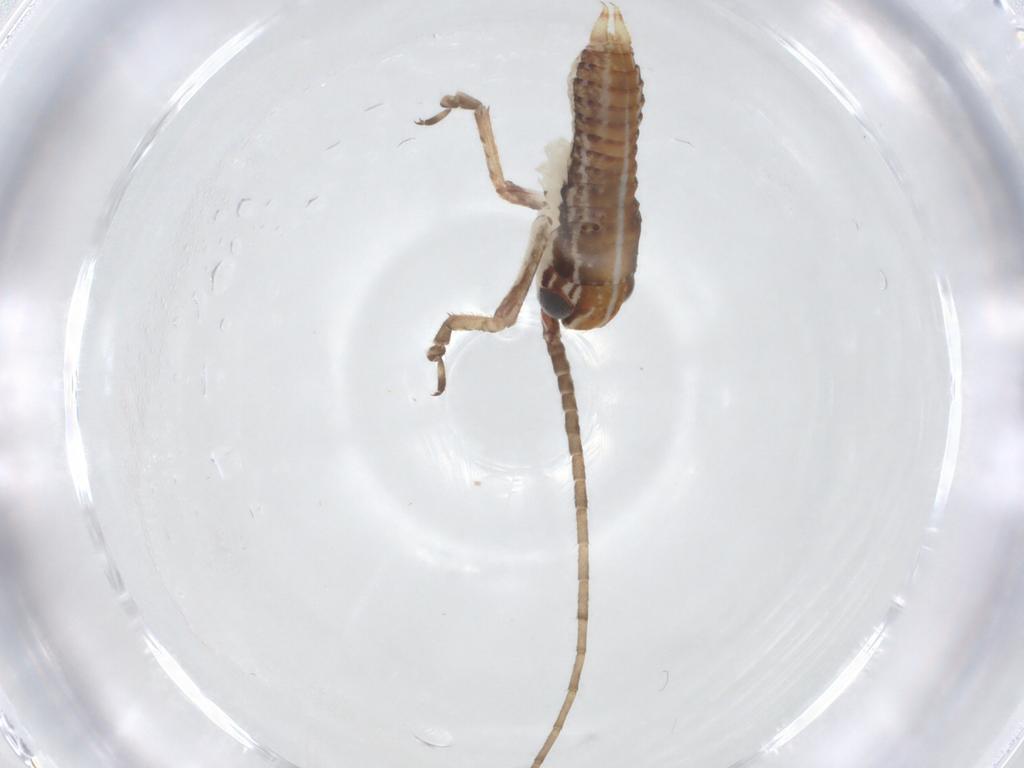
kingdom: Animalia
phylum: Arthropoda
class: Insecta
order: Orthoptera
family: Gryllidae
